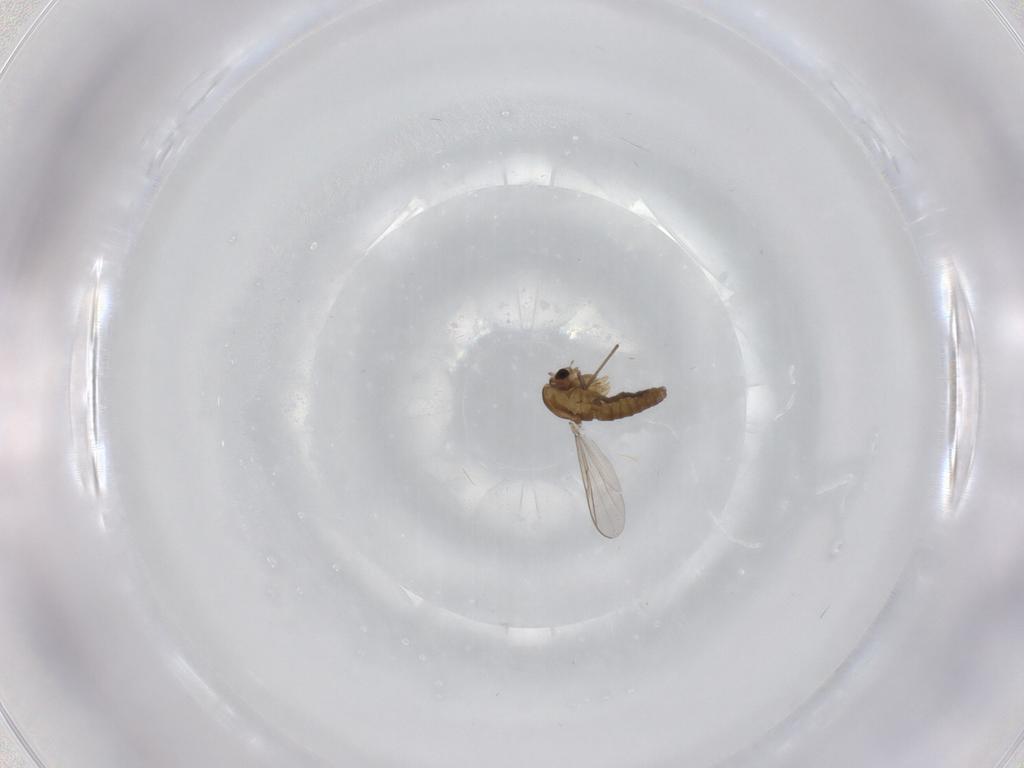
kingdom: Animalia
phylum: Arthropoda
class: Insecta
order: Diptera
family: Chironomidae
